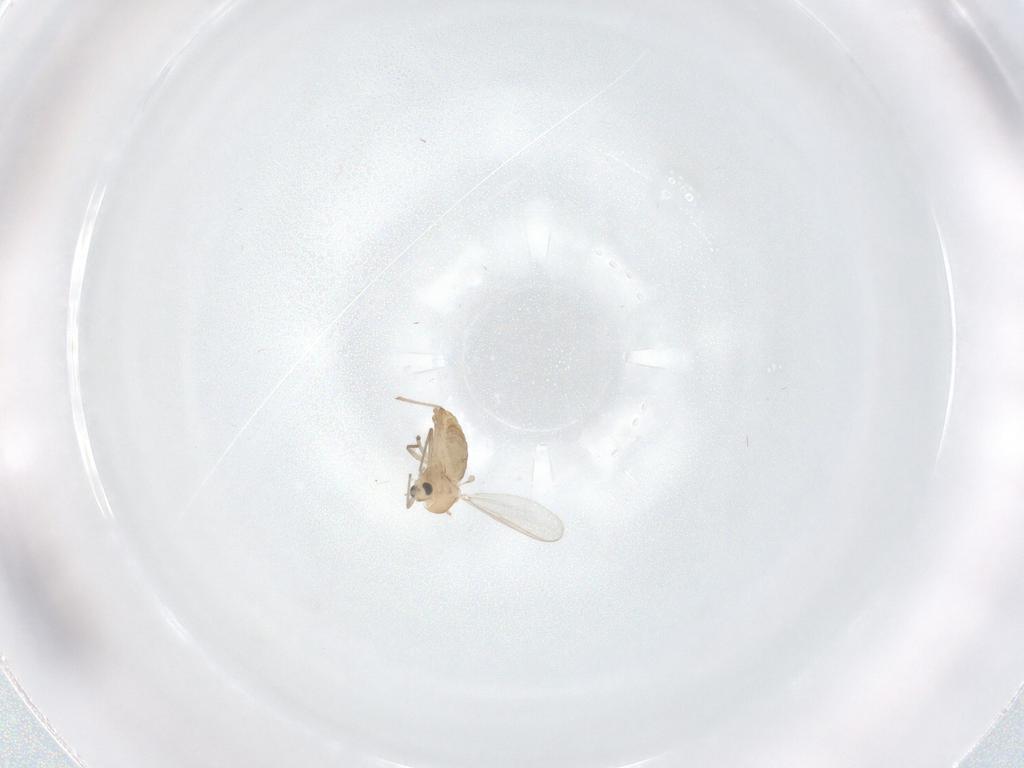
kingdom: Animalia
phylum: Arthropoda
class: Insecta
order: Diptera
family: Chironomidae
